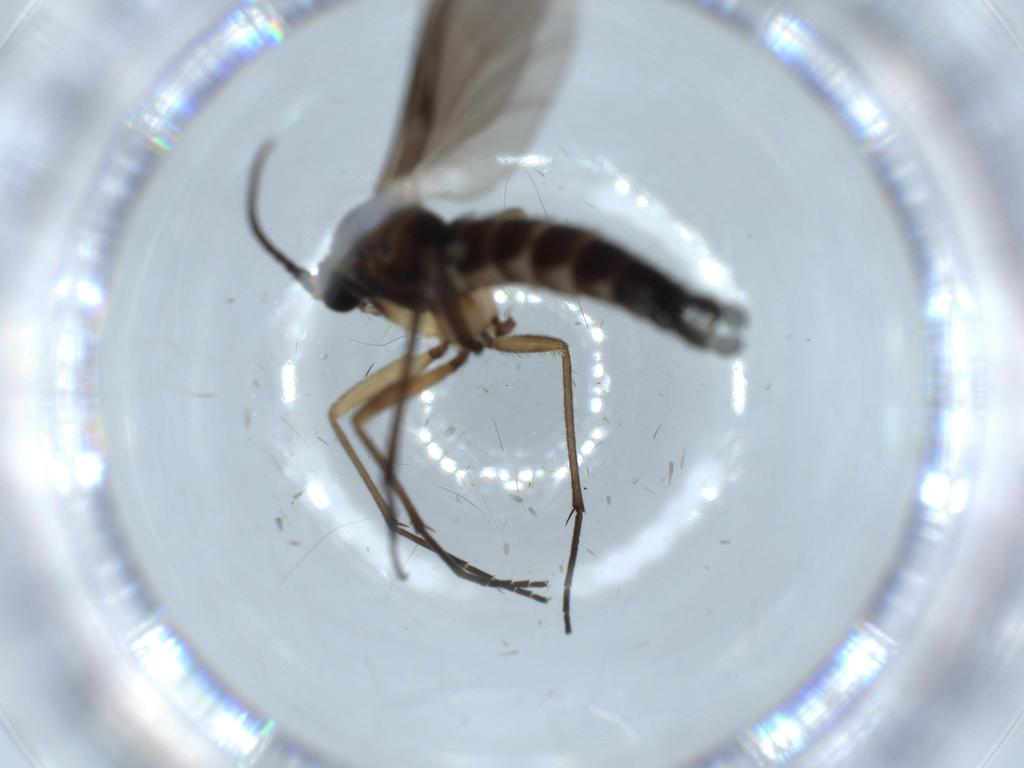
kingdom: Animalia
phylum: Arthropoda
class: Insecta
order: Diptera
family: Sciaridae
